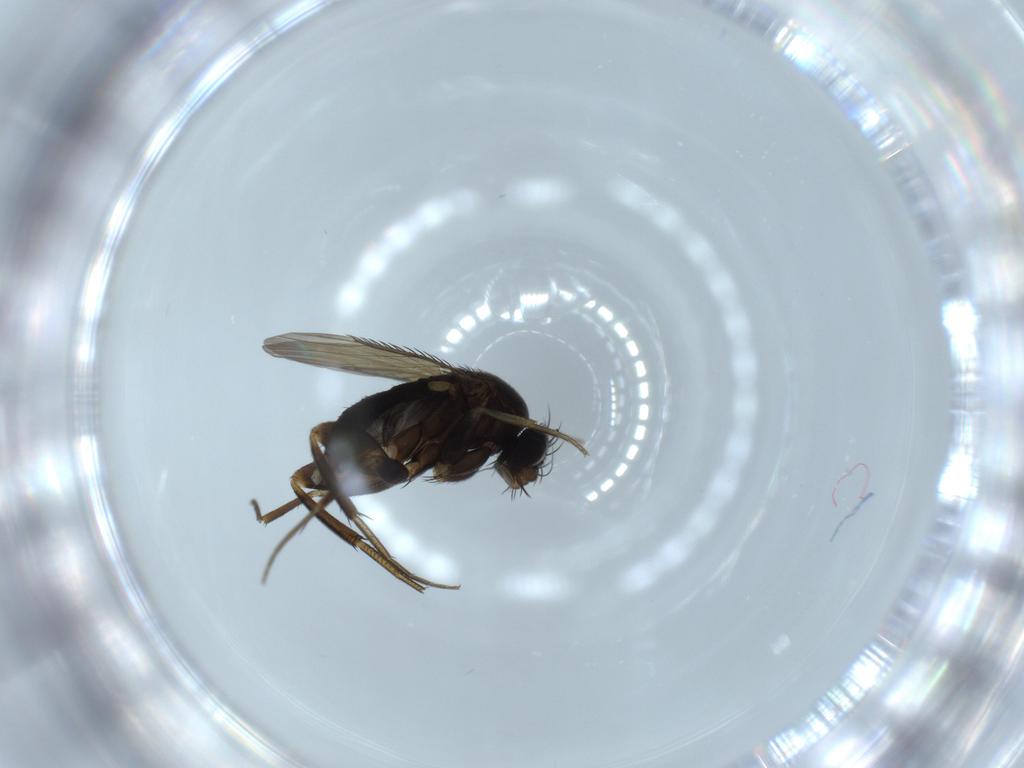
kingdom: Animalia
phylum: Arthropoda
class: Insecta
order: Diptera
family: Phoridae
